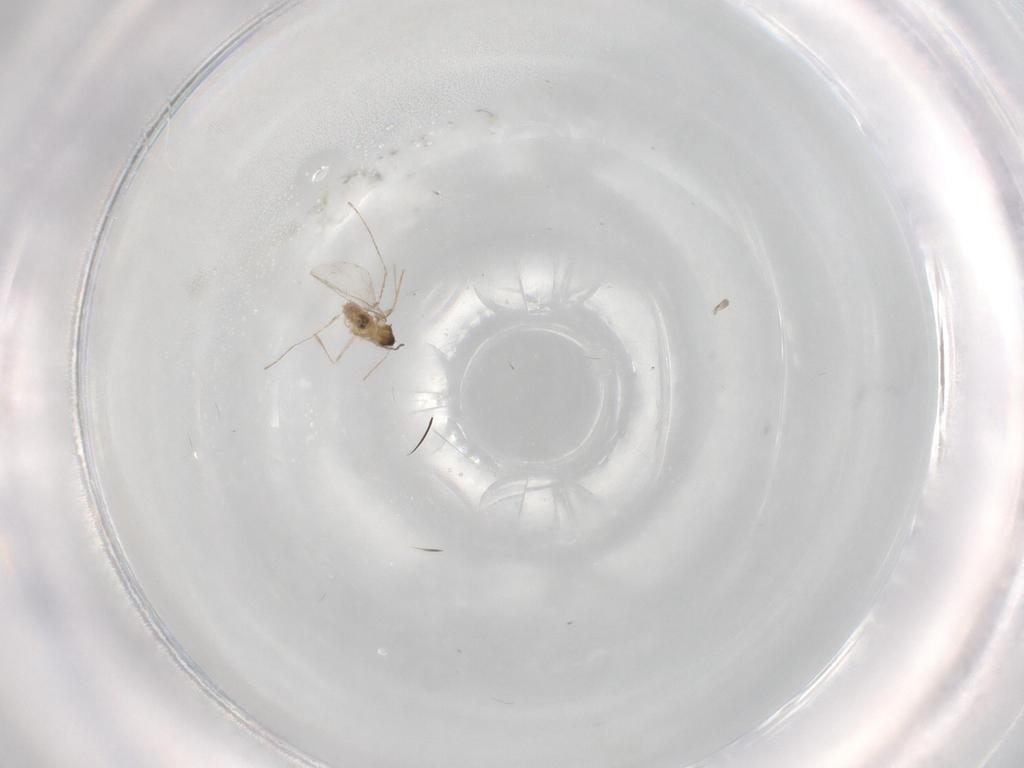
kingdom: Animalia
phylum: Arthropoda
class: Insecta
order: Diptera
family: Cecidomyiidae
